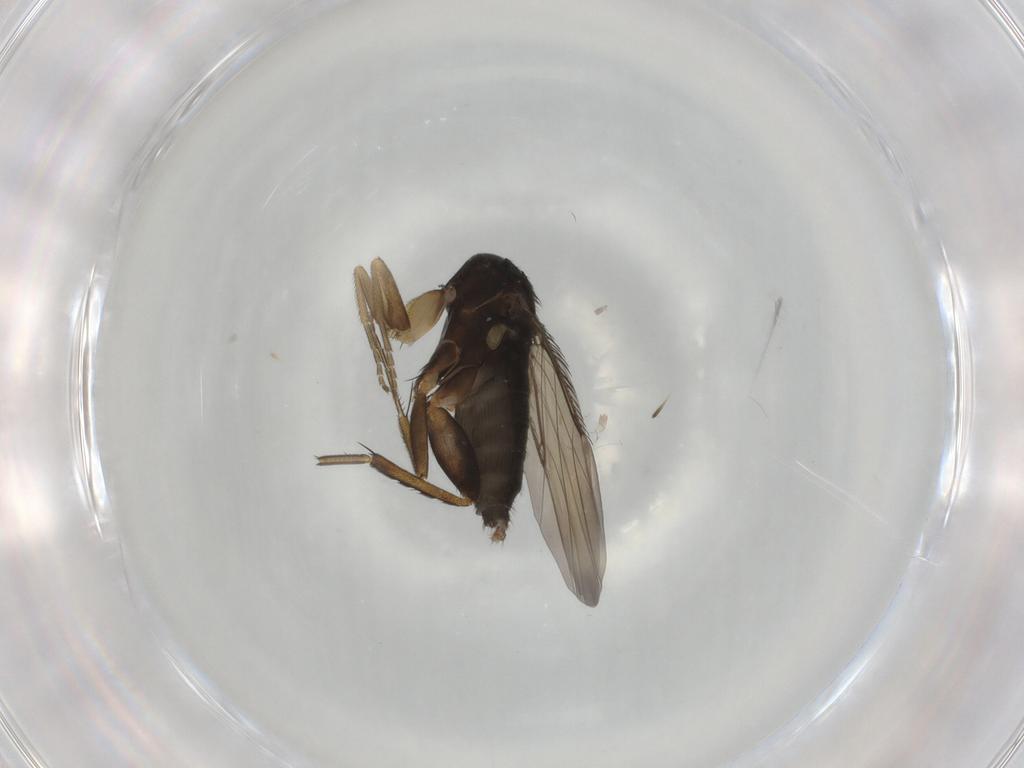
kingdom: Animalia
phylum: Arthropoda
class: Insecta
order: Diptera
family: Phoridae
